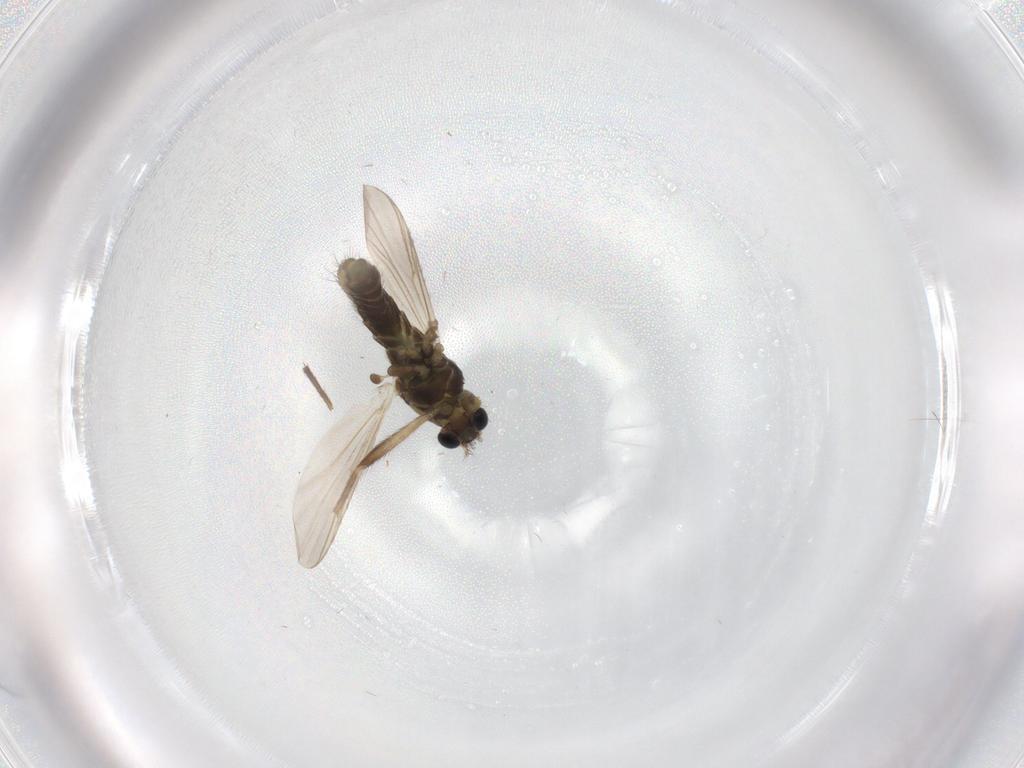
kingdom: Animalia
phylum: Arthropoda
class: Insecta
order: Diptera
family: Chironomidae
